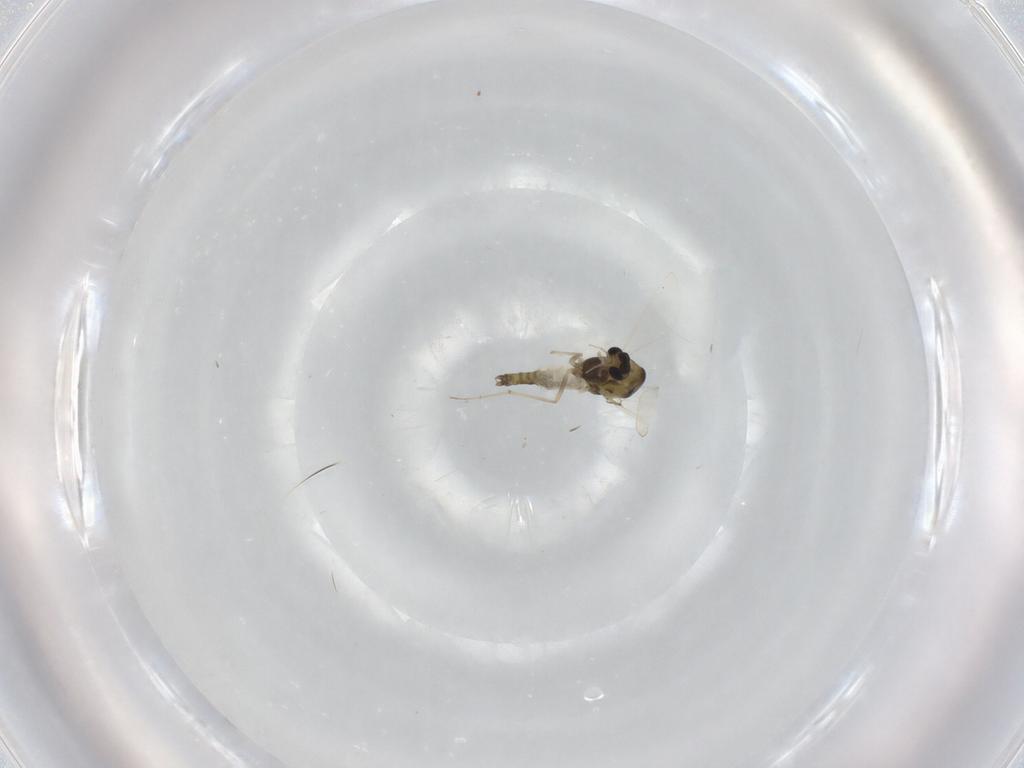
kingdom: Animalia
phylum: Arthropoda
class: Insecta
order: Diptera
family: Chironomidae
